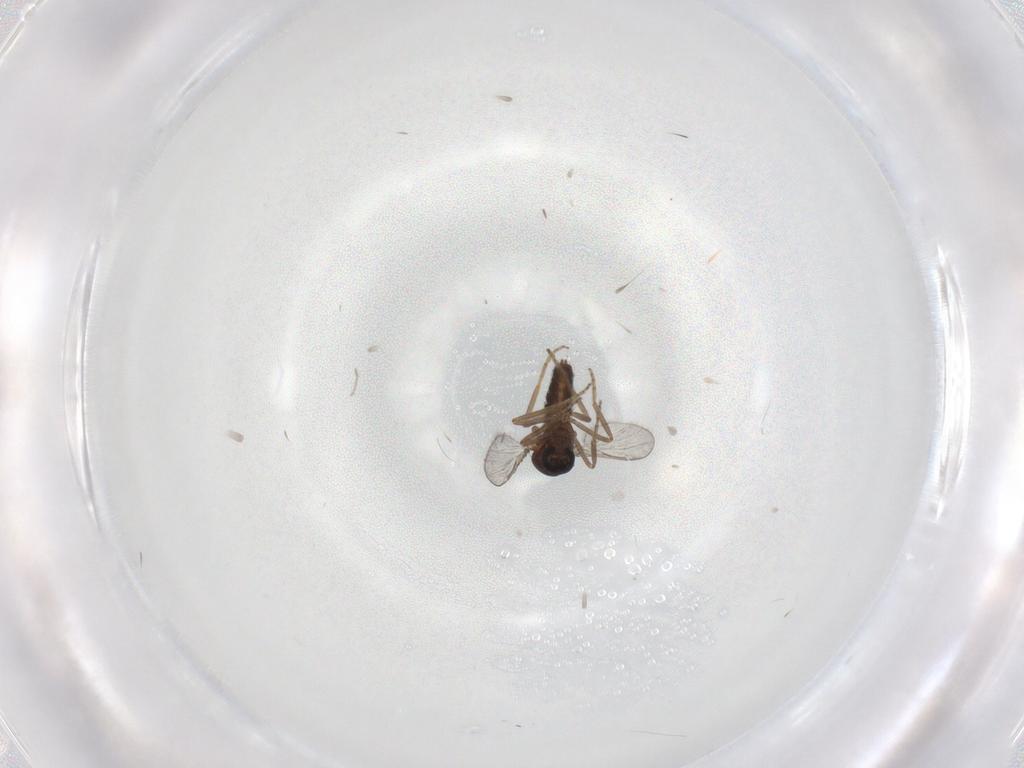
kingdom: Animalia
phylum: Arthropoda
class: Insecta
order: Diptera
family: Ceratopogonidae
